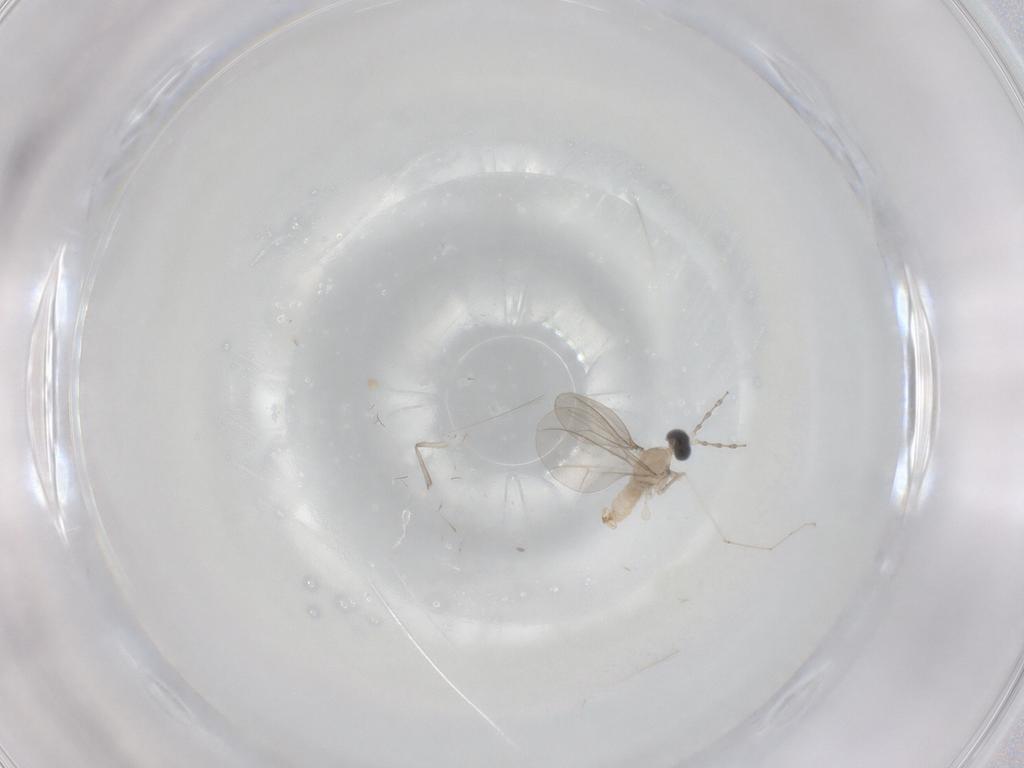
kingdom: Animalia
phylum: Arthropoda
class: Insecta
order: Diptera
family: Cecidomyiidae
